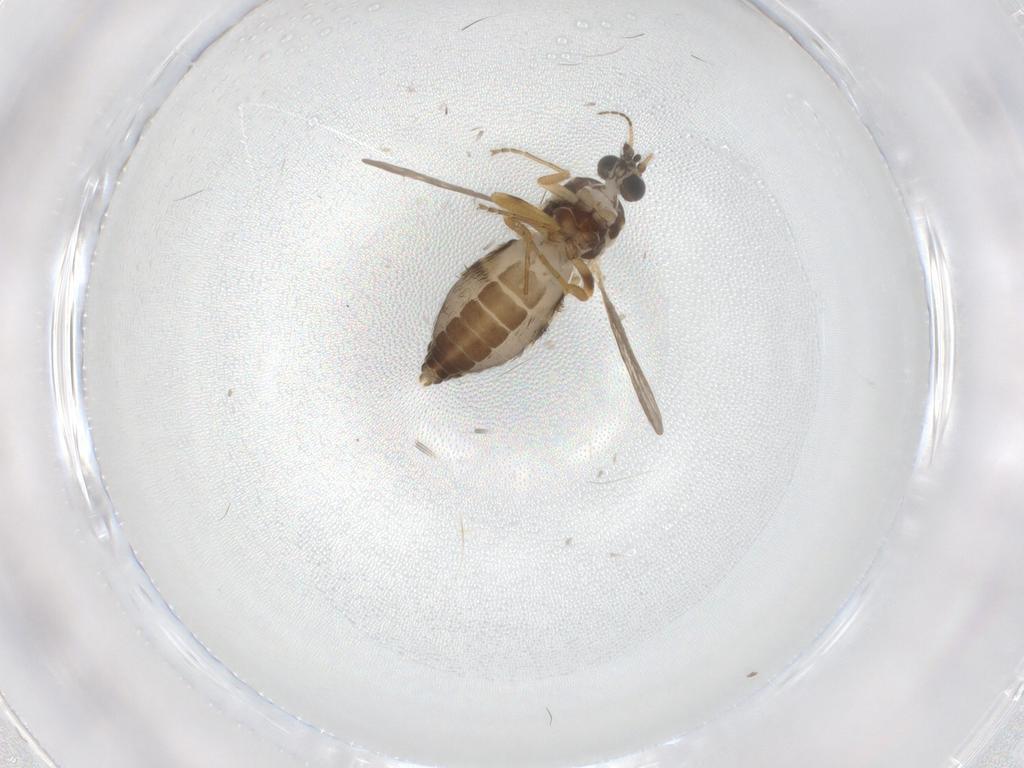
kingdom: Animalia
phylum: Arthropoda
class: Insecta
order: Diptera
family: Ceratopogonidae
